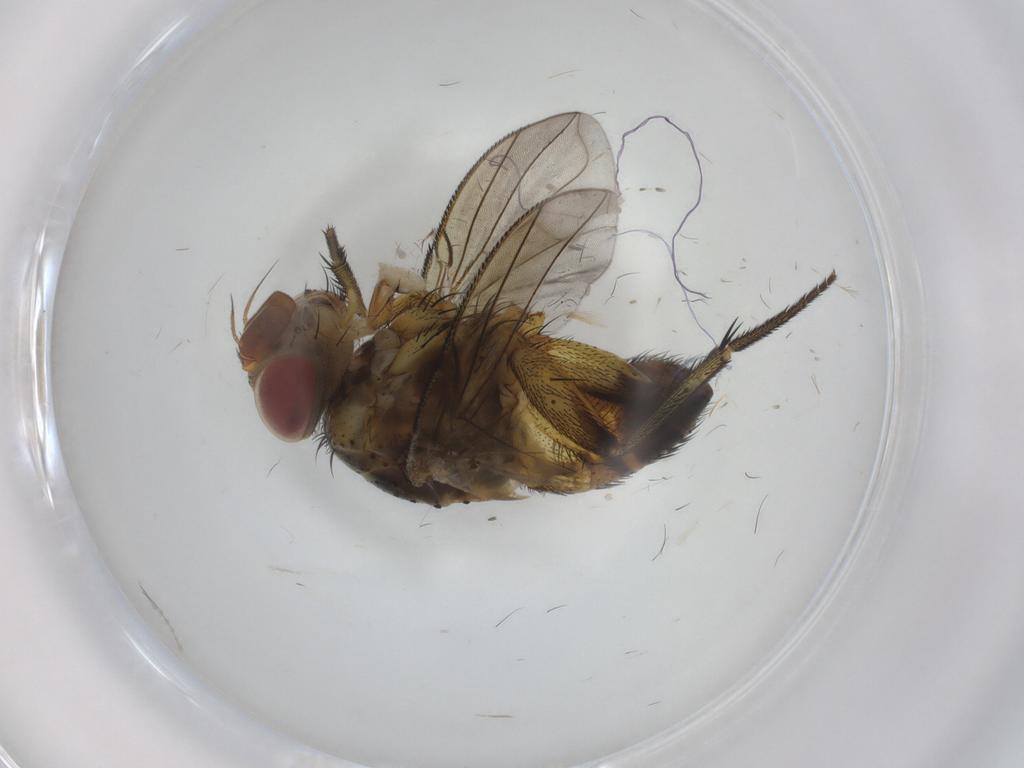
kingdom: Animalia
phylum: Arthropoda
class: Insecta
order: Diptera
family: Tachinidae
